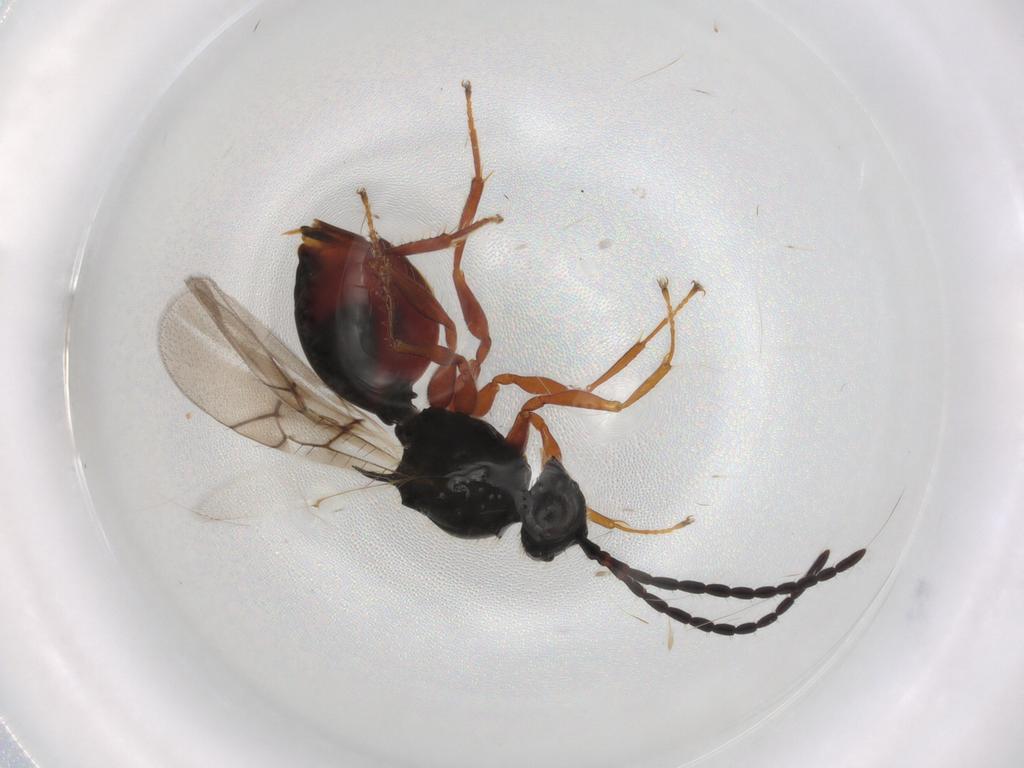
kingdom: Animalia
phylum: Arthropoda
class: Insecta
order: Hymenoptera
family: Figitidae
